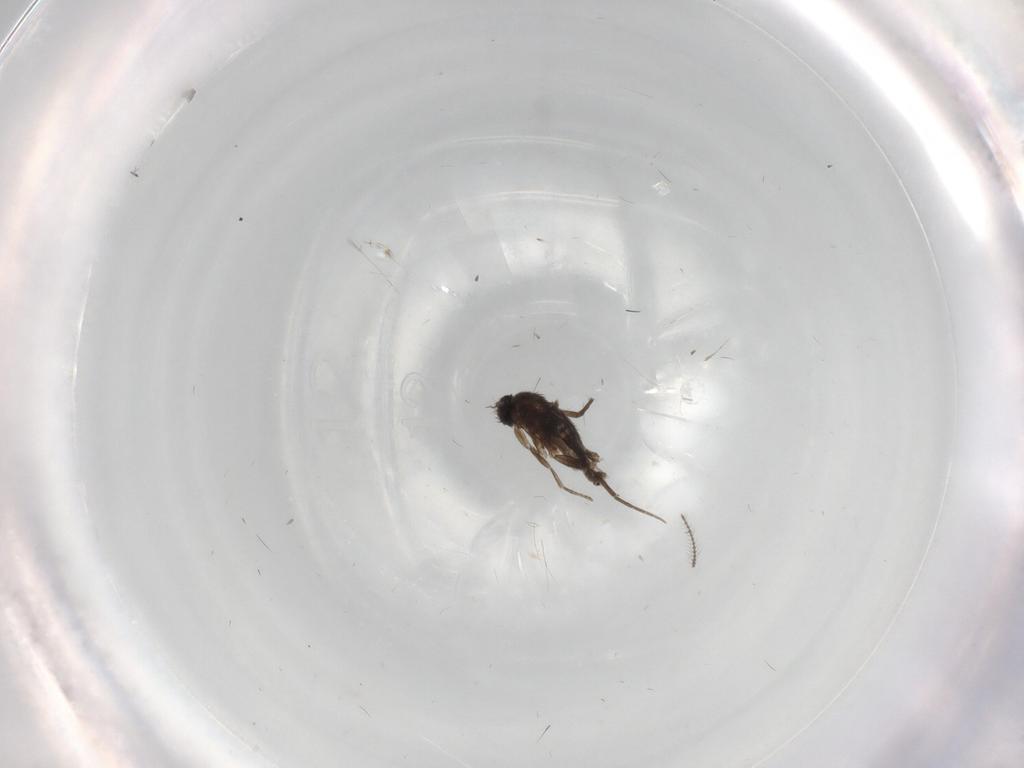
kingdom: Animalia
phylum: Arthropoda
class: Insecta
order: Diptera
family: Limoniidae
